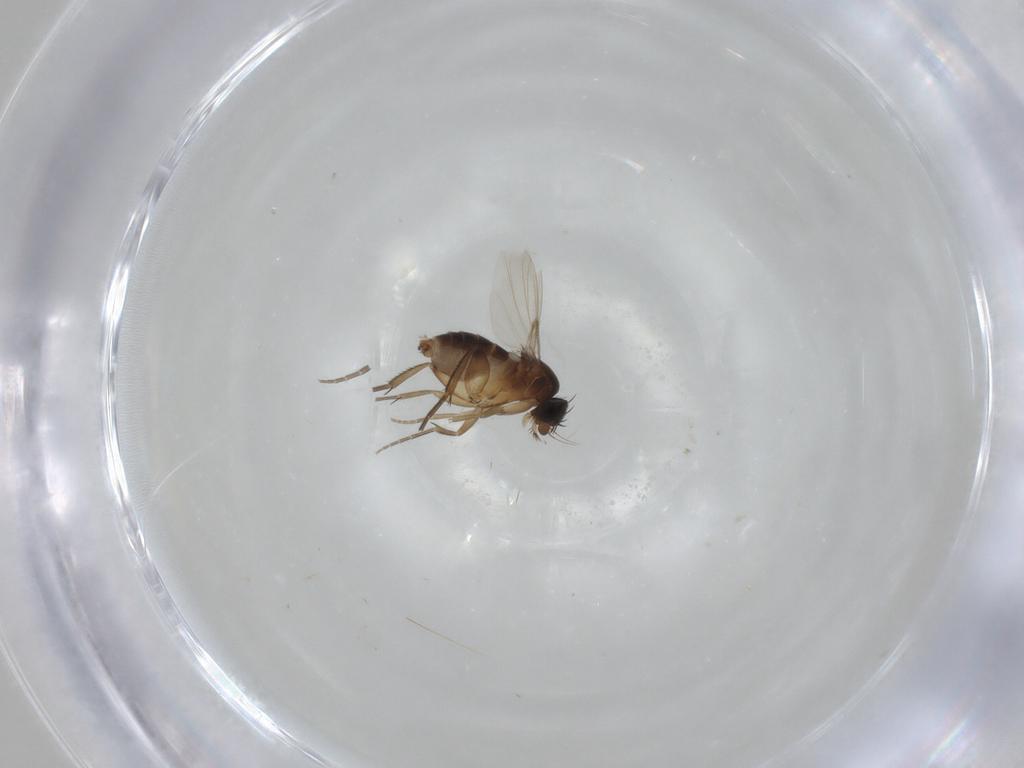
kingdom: Animalia
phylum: Arthropoda
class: Insecta
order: Diptera
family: Phoridae
